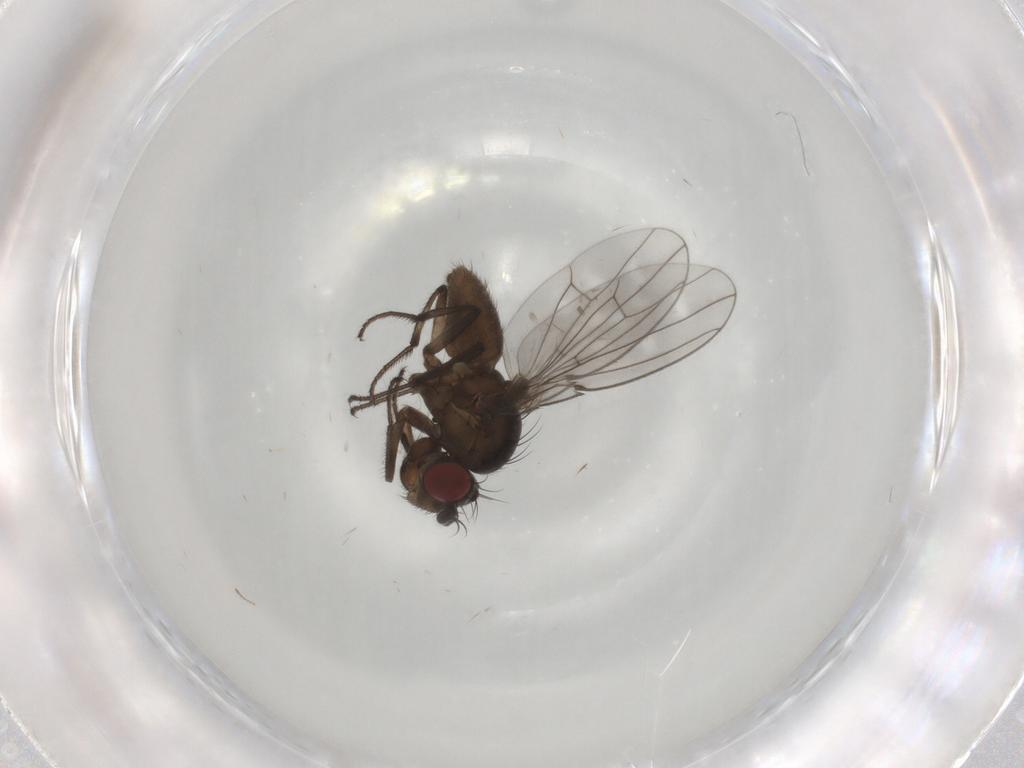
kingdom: Animalia
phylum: Arthropoda
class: Insecta
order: Diptera
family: Ephydridae
